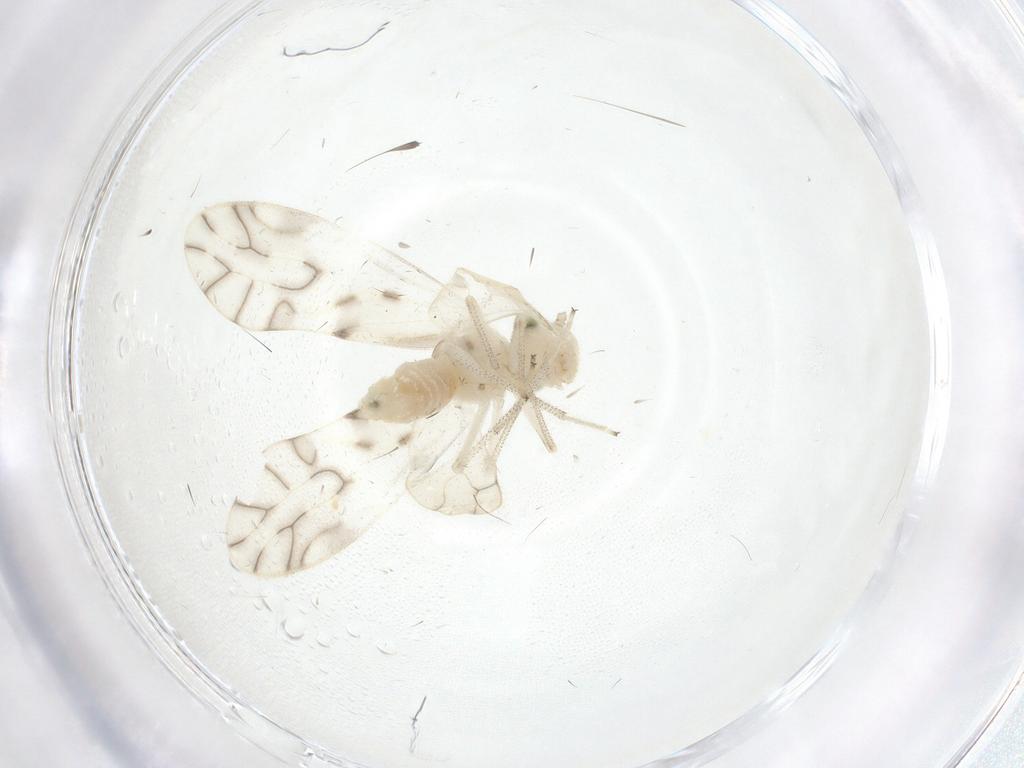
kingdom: Animalia
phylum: Arthropoda
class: Insecta
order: Psocodea
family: Caeciliusidae
